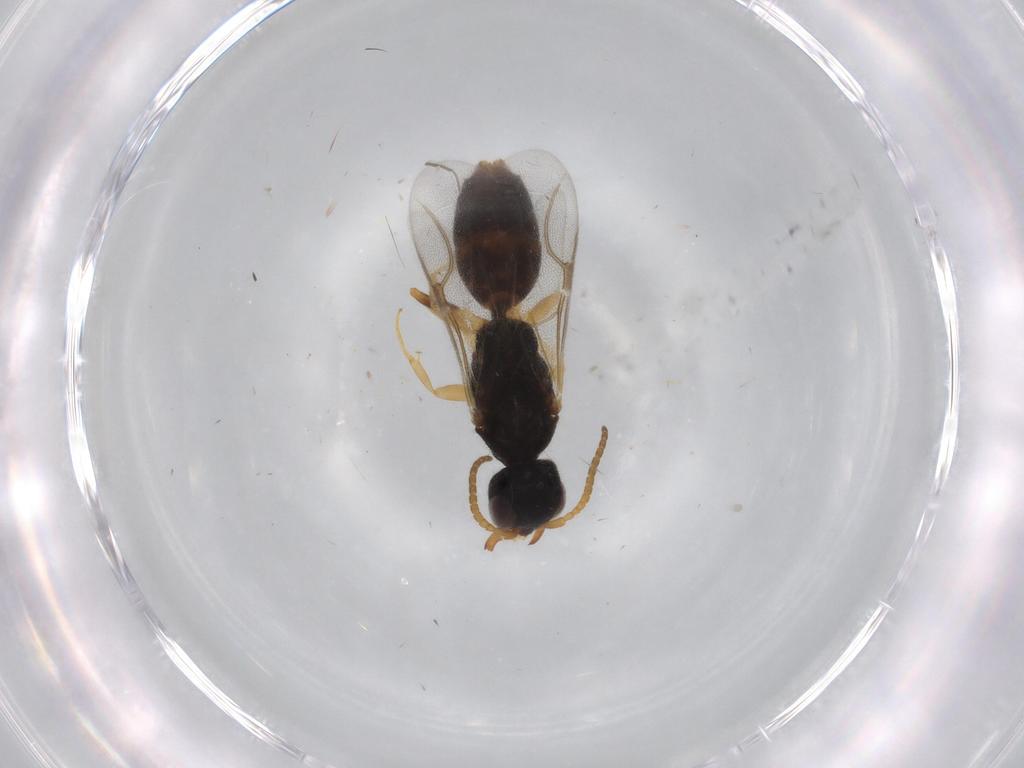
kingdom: Animalia
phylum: Arthropoda
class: Insecta
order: Hymenoptera
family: Bethylidae
